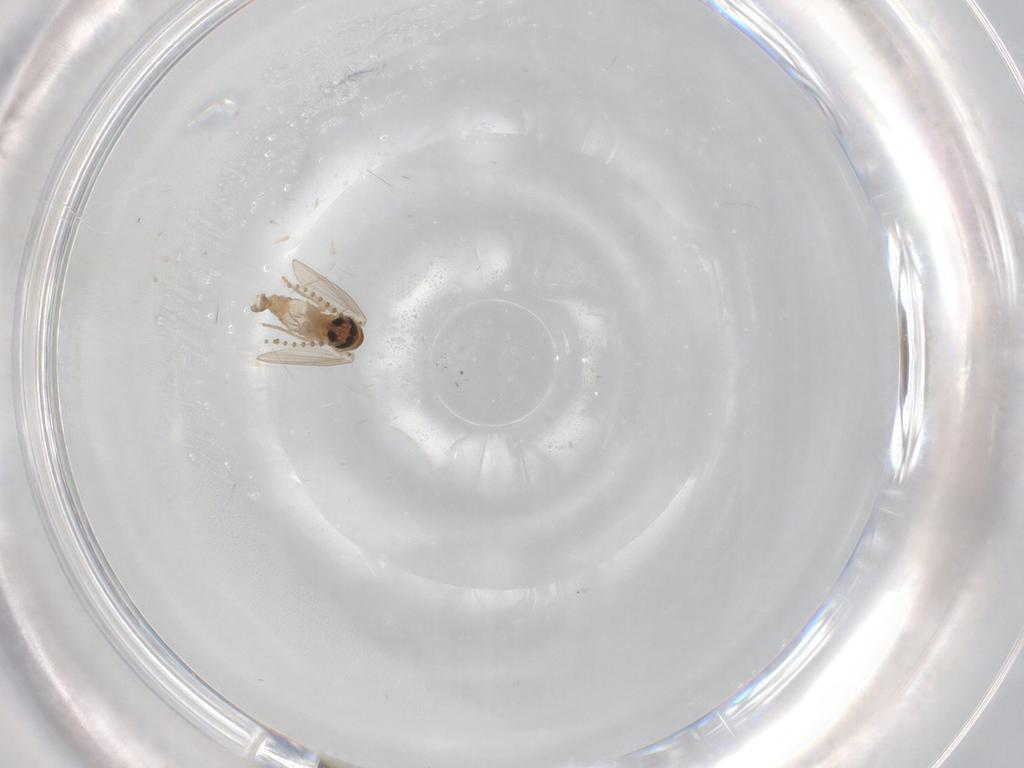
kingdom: Animalia
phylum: Arthropoda
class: Insecta
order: Diptera
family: Psychodidae
